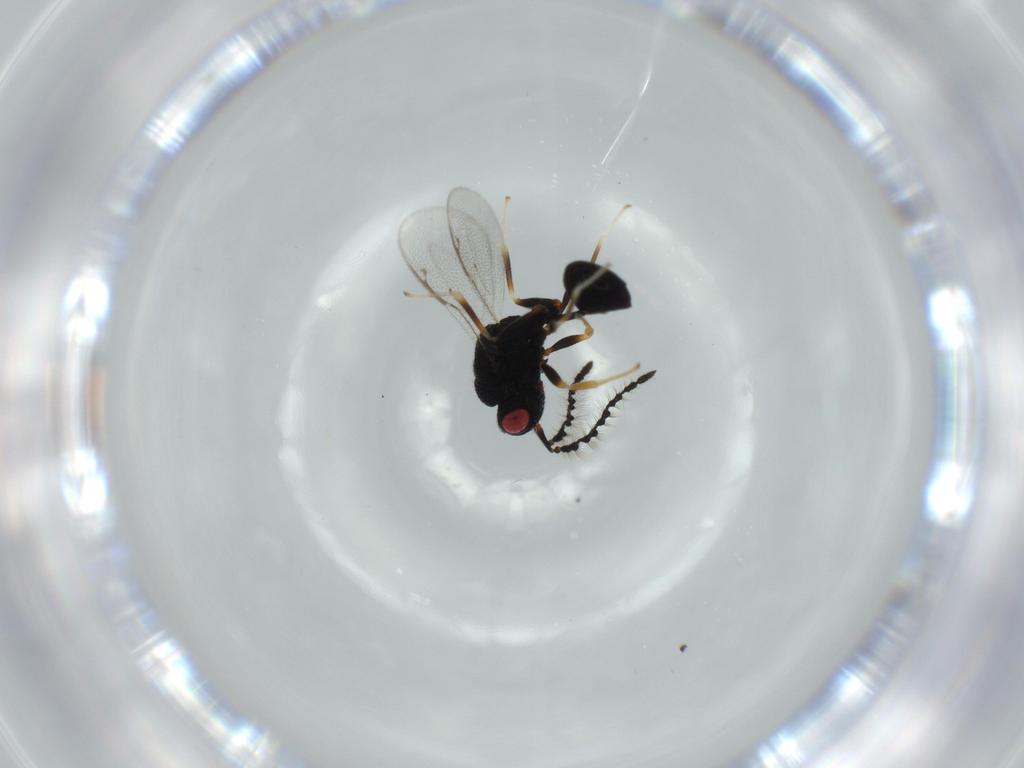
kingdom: Animalia
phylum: Arthropoda
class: Insecta
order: Hymenoptera
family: Eurytomidae
